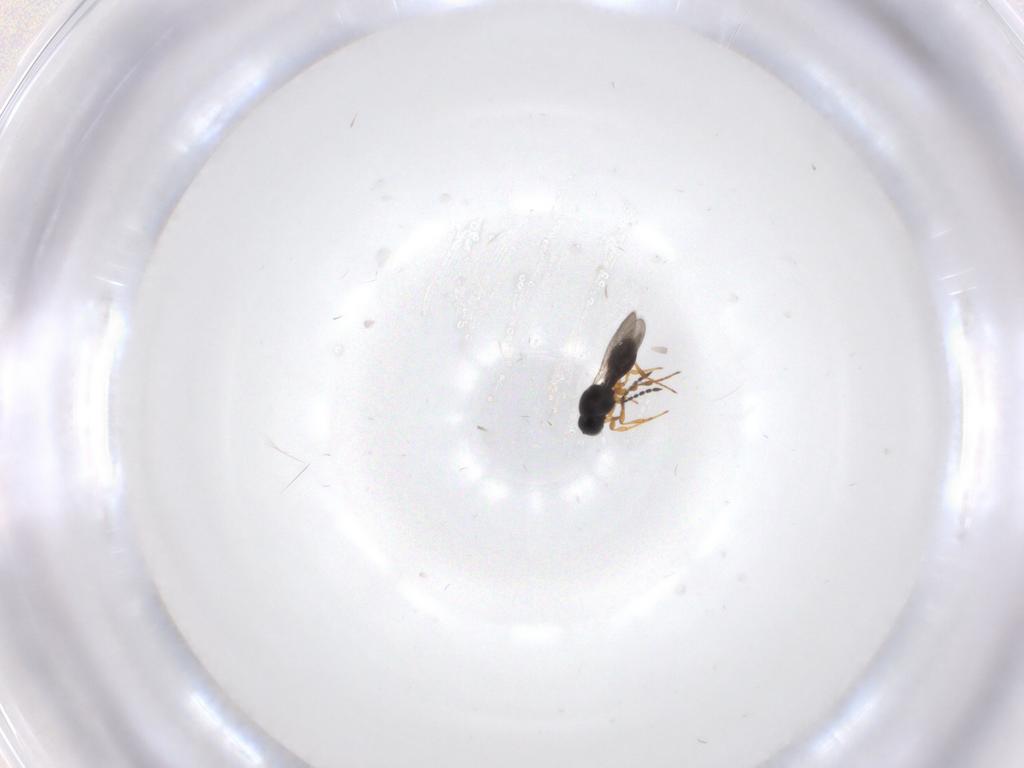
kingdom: Animalia
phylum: Arthropoda
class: Insecta
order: Hymenoptera
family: Platygastridae
